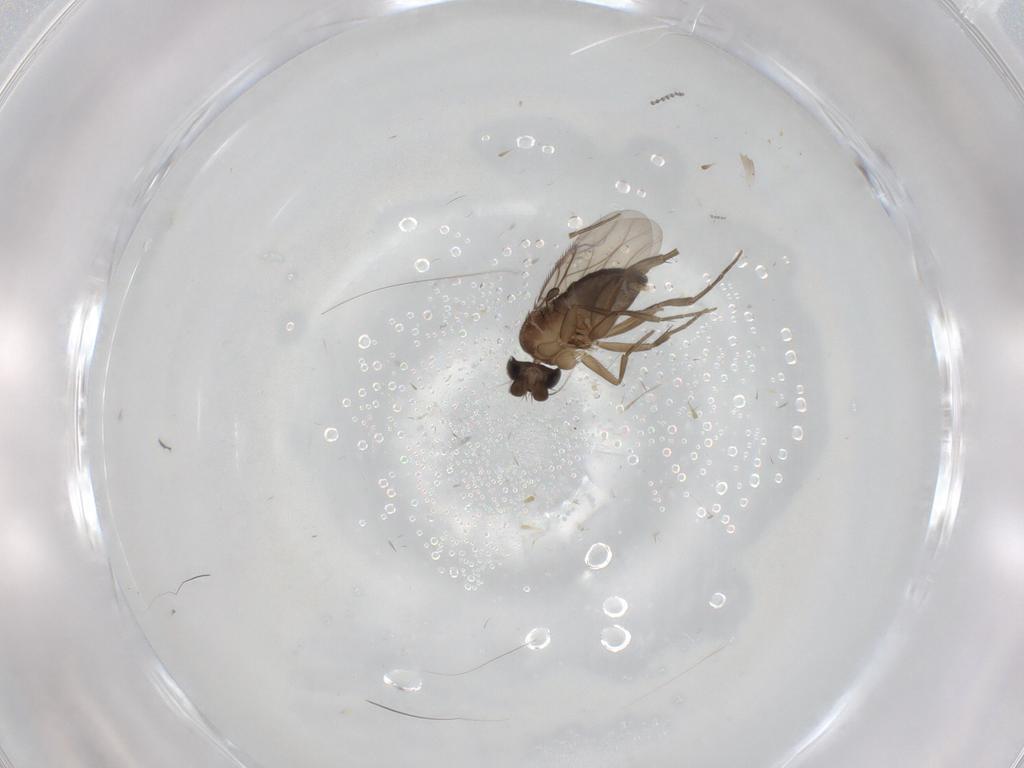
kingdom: Animalia
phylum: Arthropoda
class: Insecta
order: Diptera
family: Phoridae
